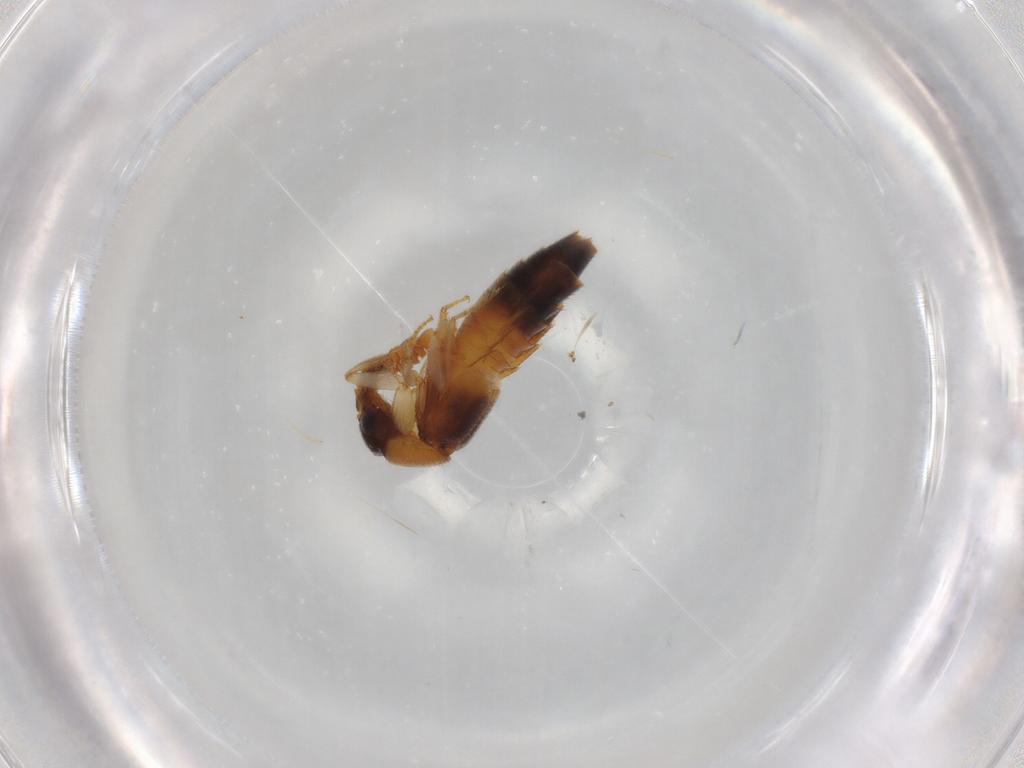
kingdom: Animalia
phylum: Arthropoda
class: Insecta
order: Coleoptera
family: Staphylinidae
